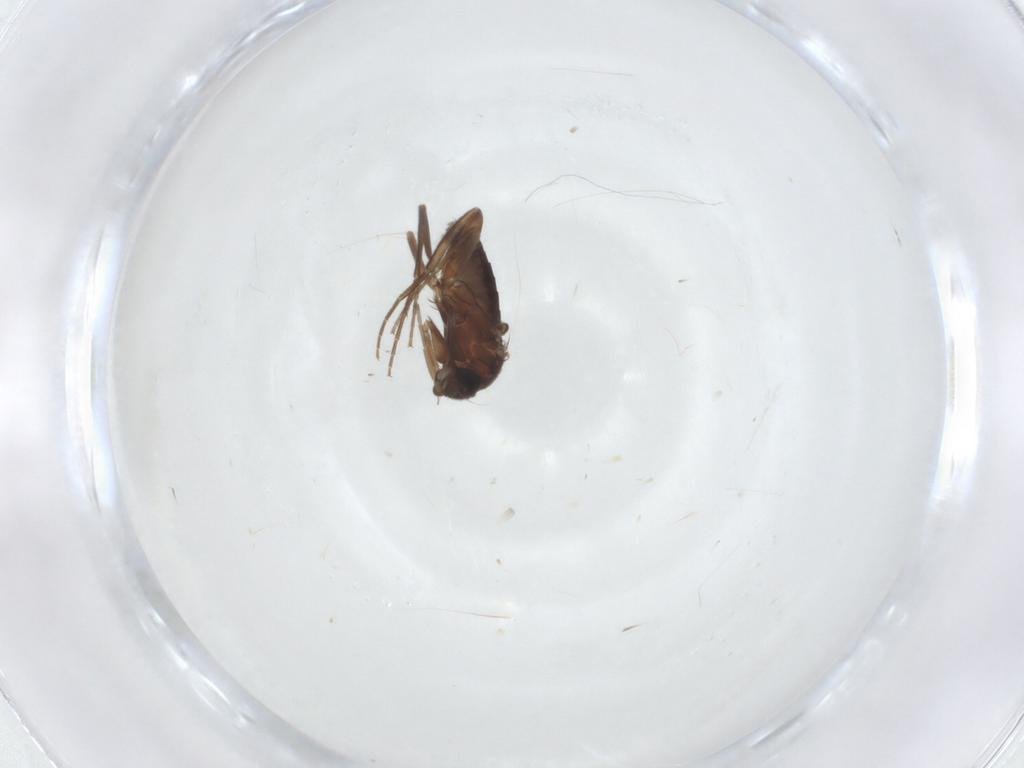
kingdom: Animalia
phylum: Arthropoda
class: Insecta
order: Diptera
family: Phoridae
